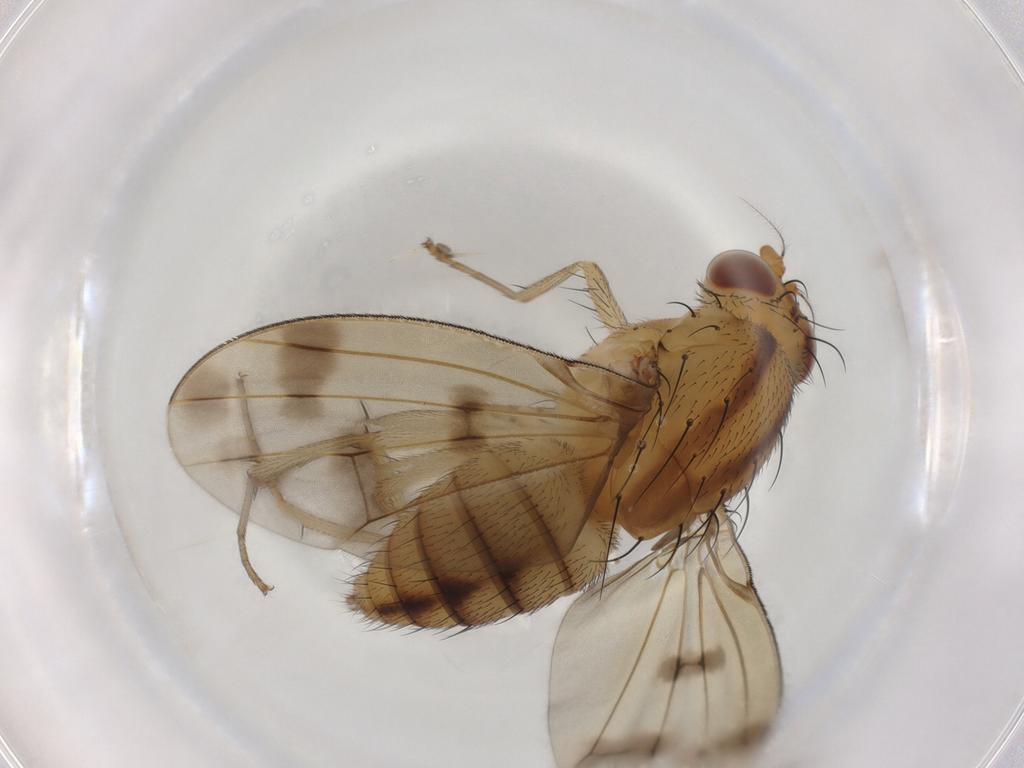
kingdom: Animalia
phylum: Arthropoda
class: Insecta
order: Diptera
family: Lauxaniidae
